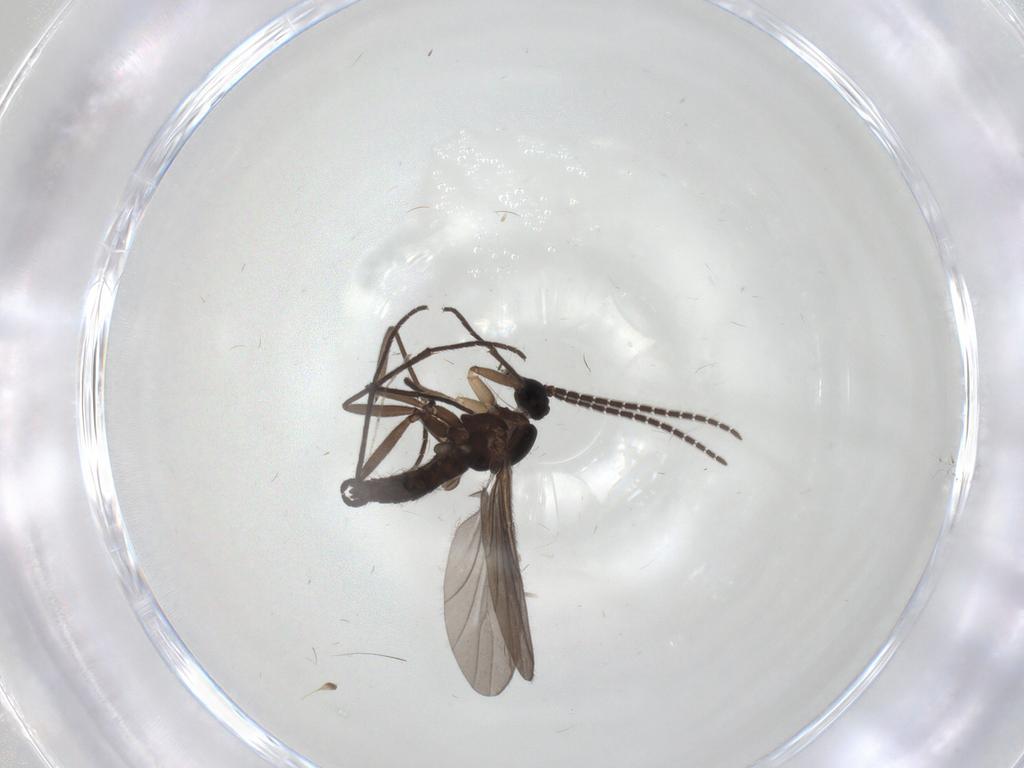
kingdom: Animalia
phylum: Arthropoda
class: Insecta
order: Diptera
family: Sciaridae
